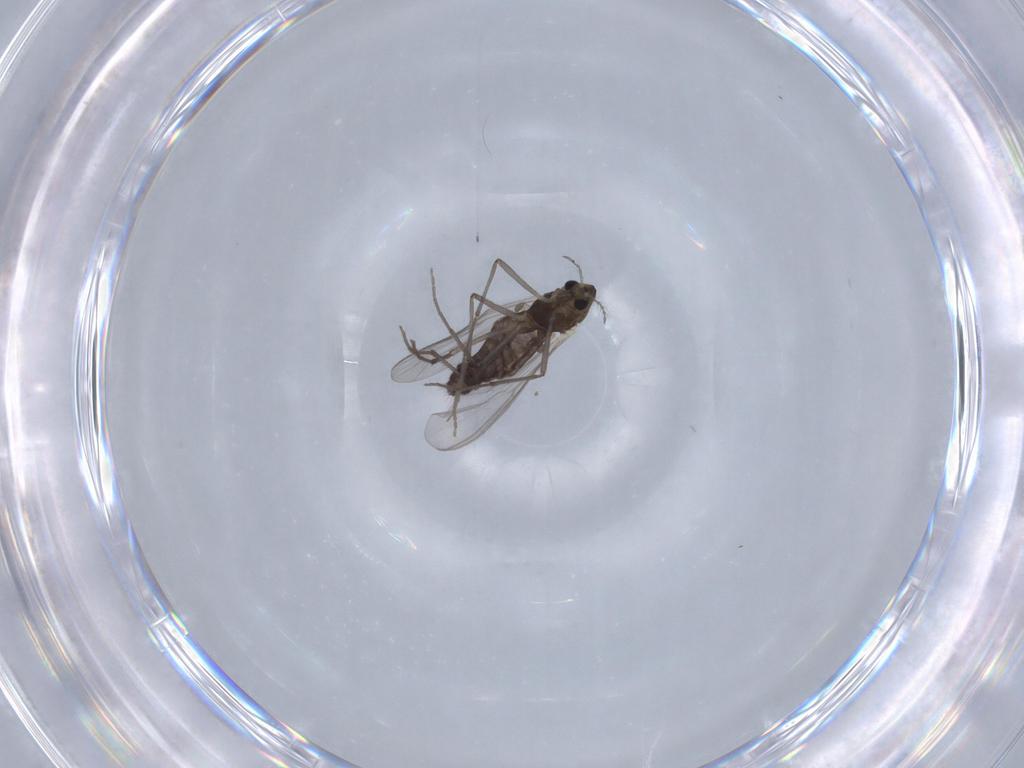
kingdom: Animalia
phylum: Arthropoda
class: Insecta
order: Diptera
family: Chironomidae
